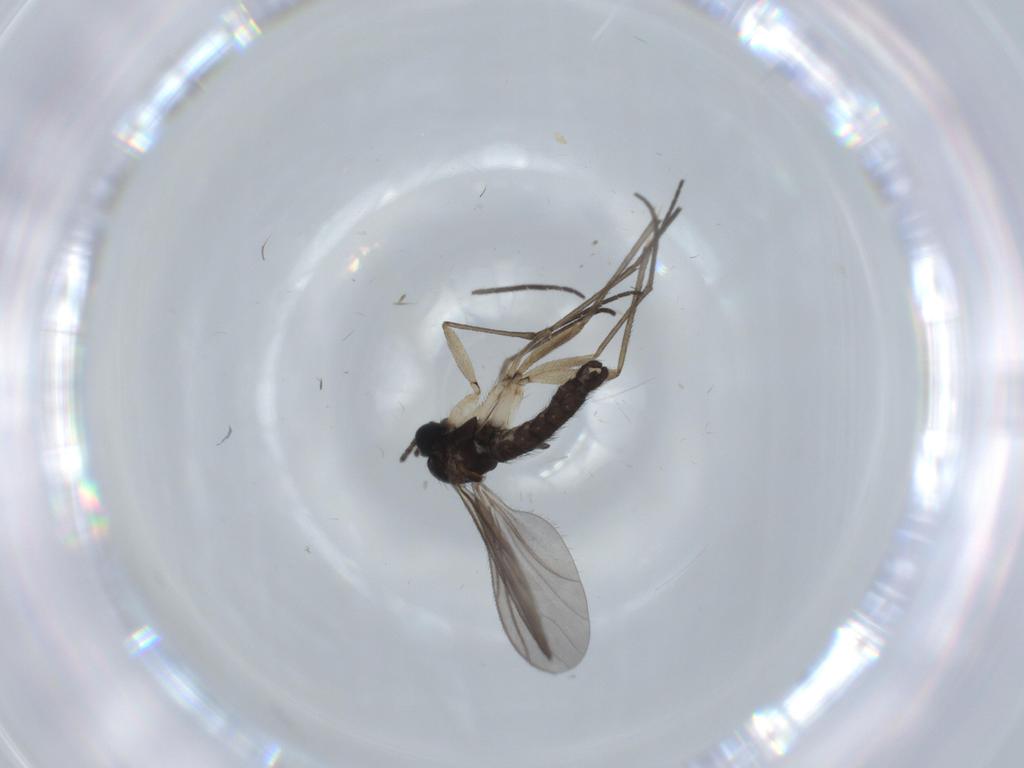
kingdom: Animalia
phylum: Arthropoda
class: Insecta
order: Diptera
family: Sciaridae
